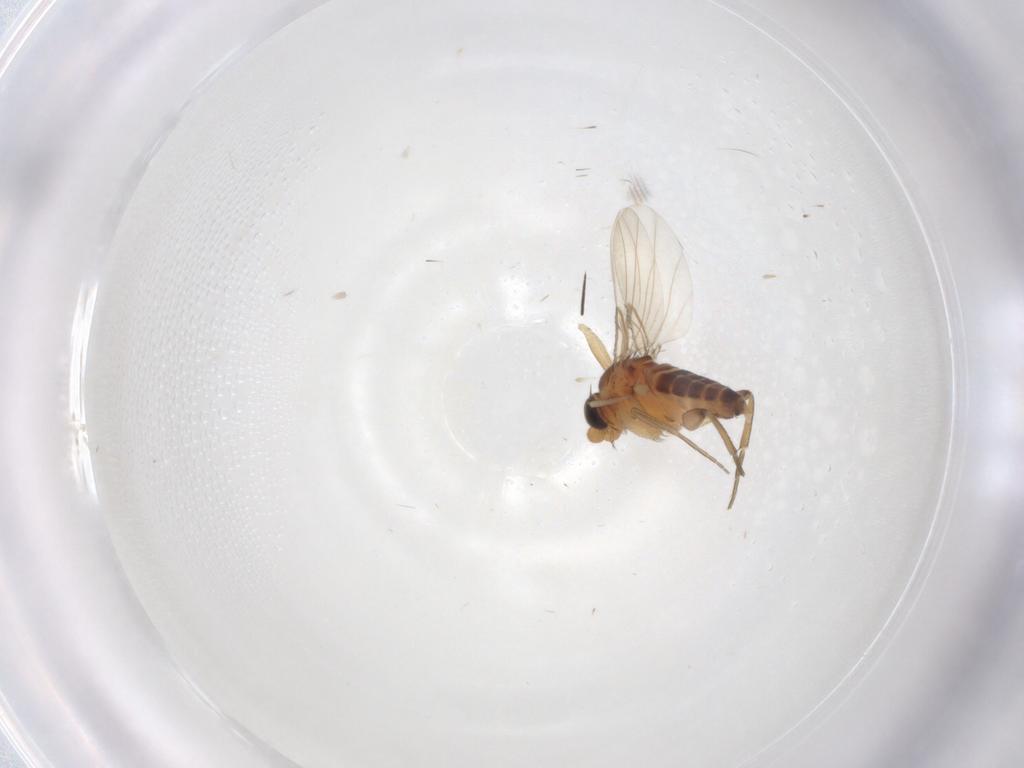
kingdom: Animalia
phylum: Arthropoda
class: Insecta
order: Diptera
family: Phoridae
